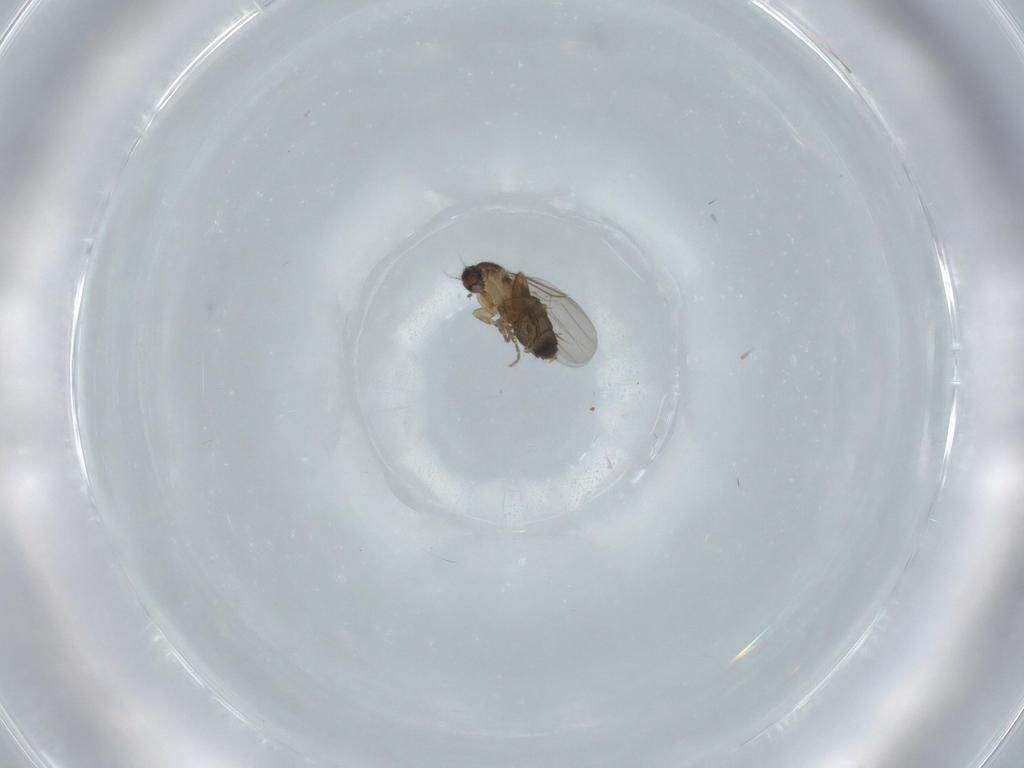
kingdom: Animalia
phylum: Arthropoda
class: Insecta
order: Diptera
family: Phoridae
